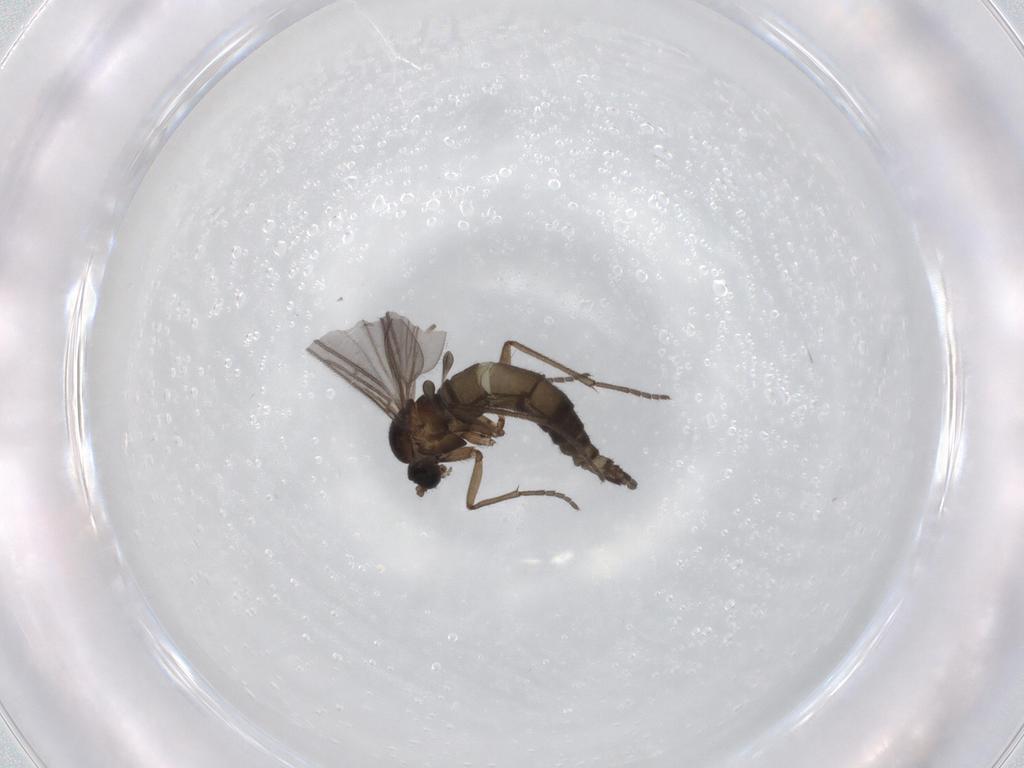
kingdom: Animalia
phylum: Arthropoda
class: Insecta
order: Diptera
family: Sciaridae
